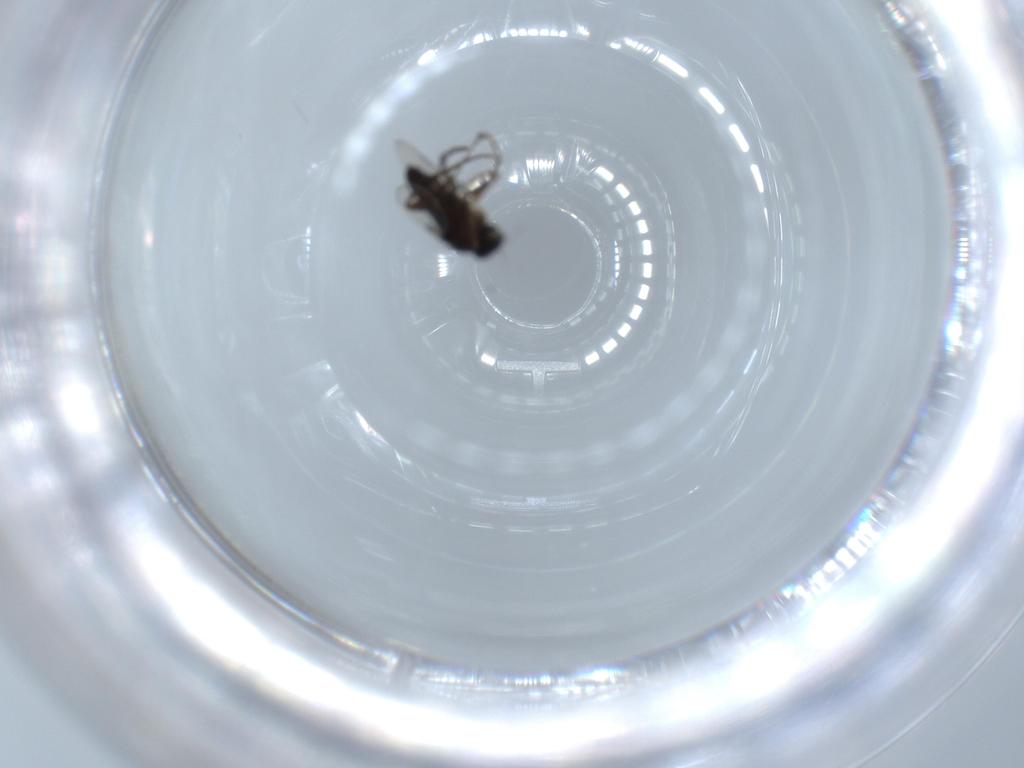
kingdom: Animalia
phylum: Arthropoda
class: Insecta
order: Diptera
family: Phoridae
